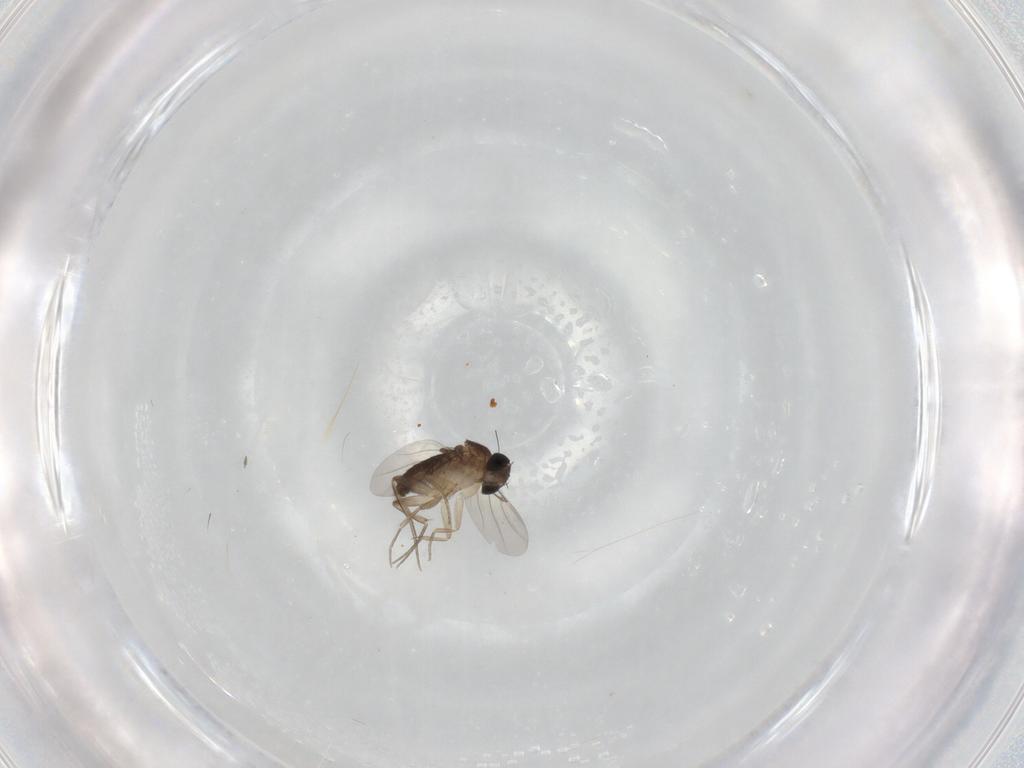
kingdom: Animalia
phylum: Arthropoda
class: Insecta
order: Diptera
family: Phoridae
